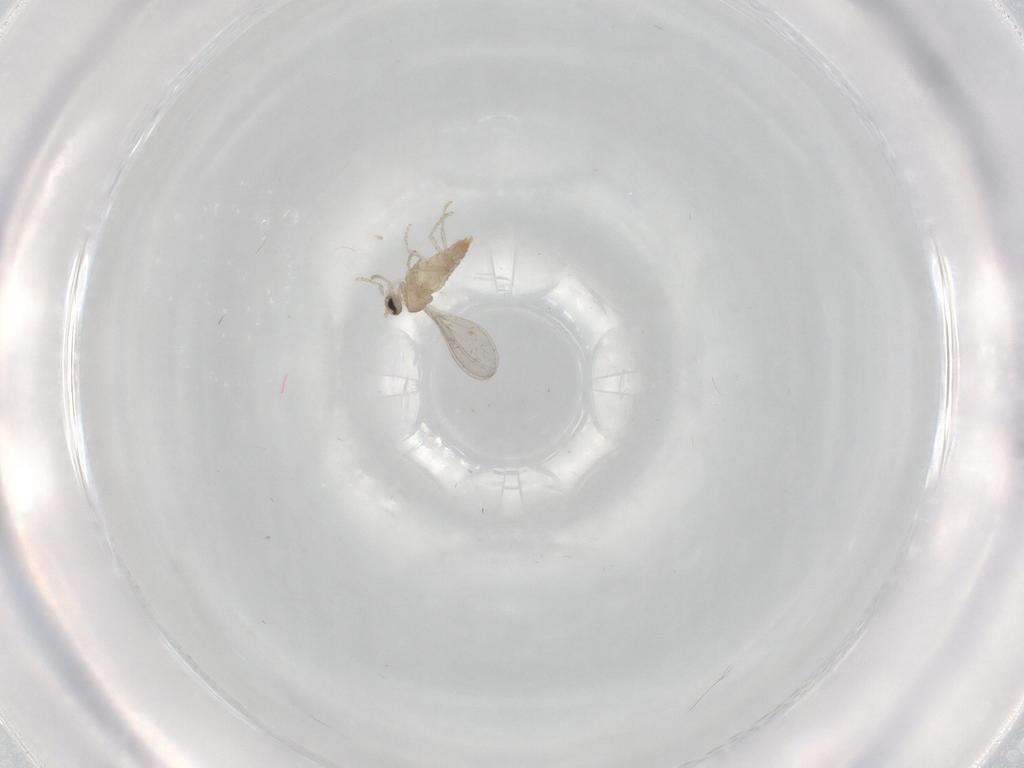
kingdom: Animalia
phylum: Arthropoda
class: Insecta
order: Diptera
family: Cecidomyiidae
